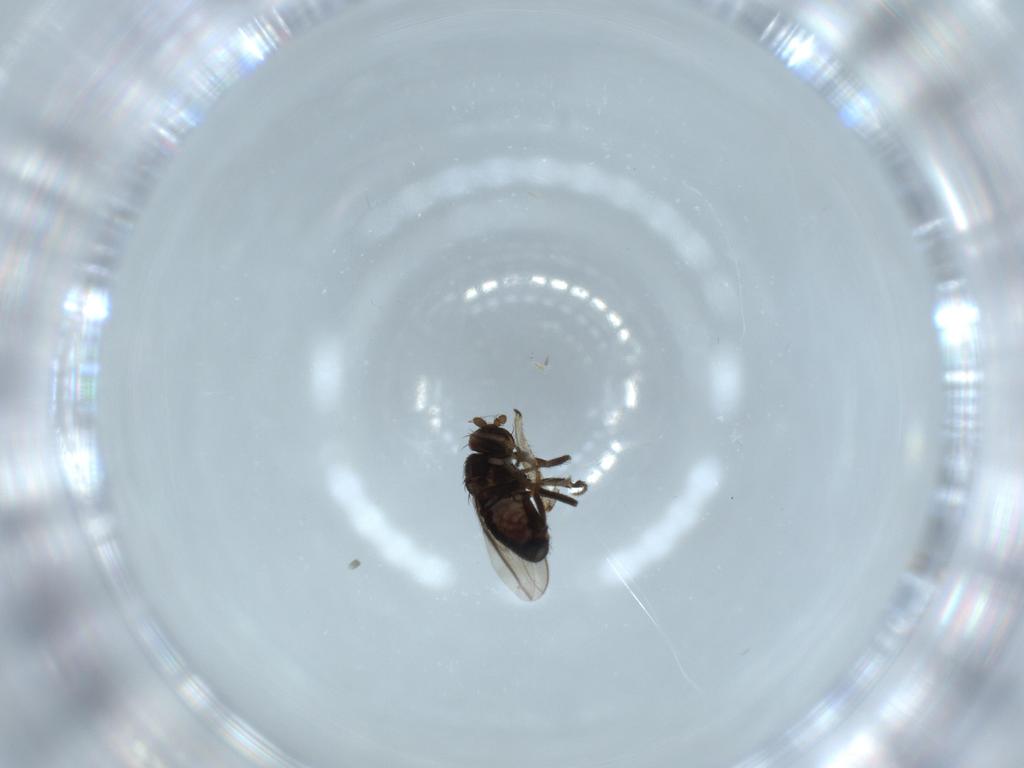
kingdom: Animalia
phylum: Arthropoda
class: Insecta
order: Diptera
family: Sciaridae
